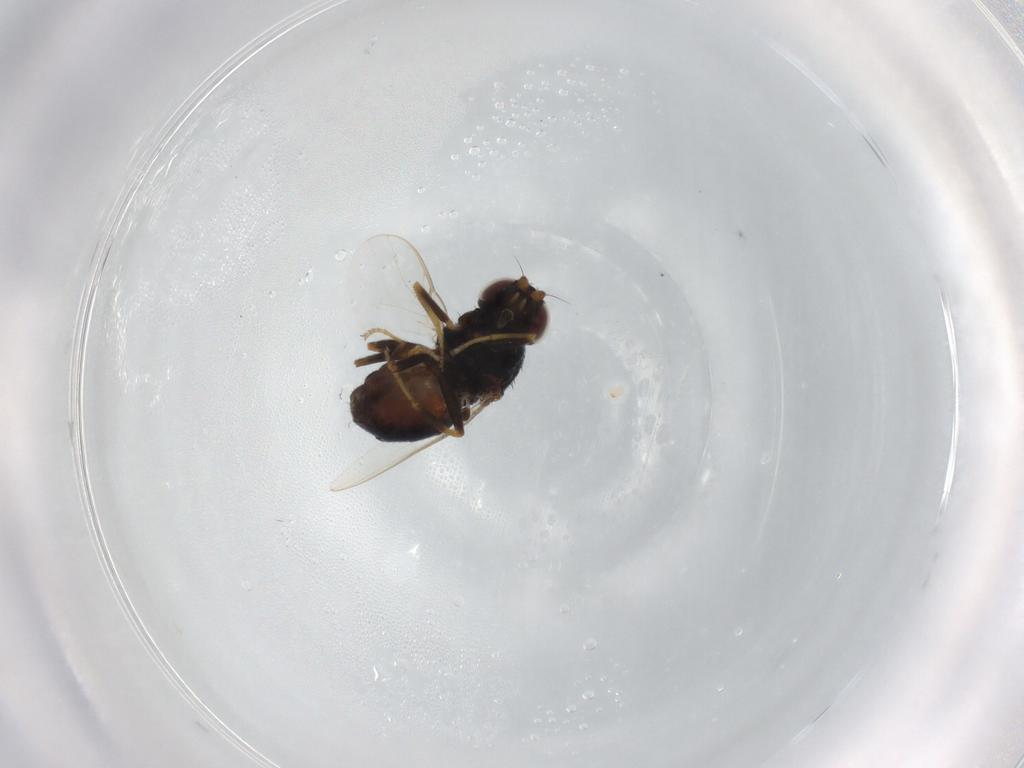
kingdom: Animalia
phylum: Arthropoda
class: Insecta
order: Diptera
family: Chloropidae
